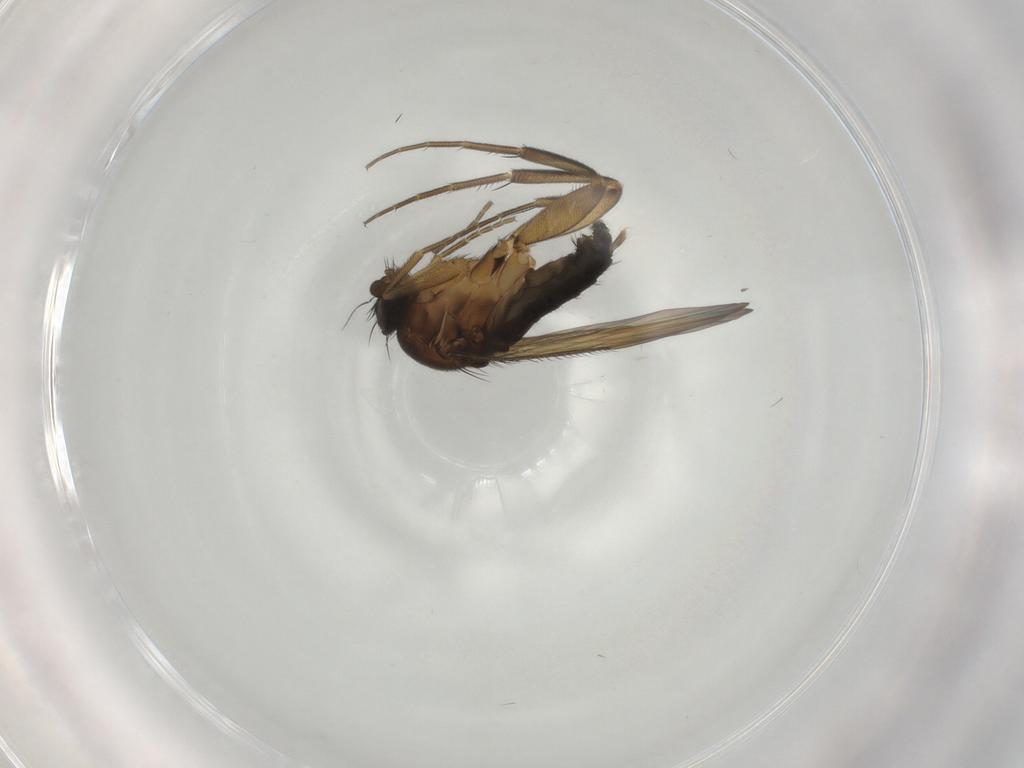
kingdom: Animalia
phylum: Arthropoda
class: Insecta
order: Diptera
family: Phoridae
